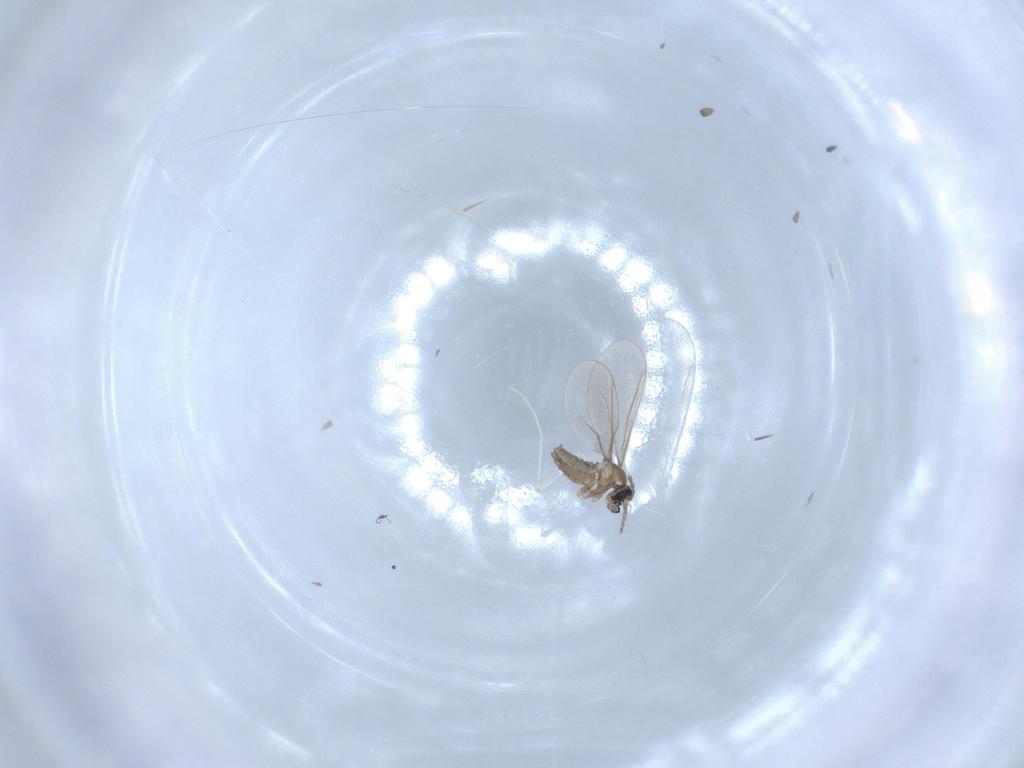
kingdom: Animalia
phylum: Arthropoda
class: Insecta
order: Diptera
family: Cecidomyiidae
